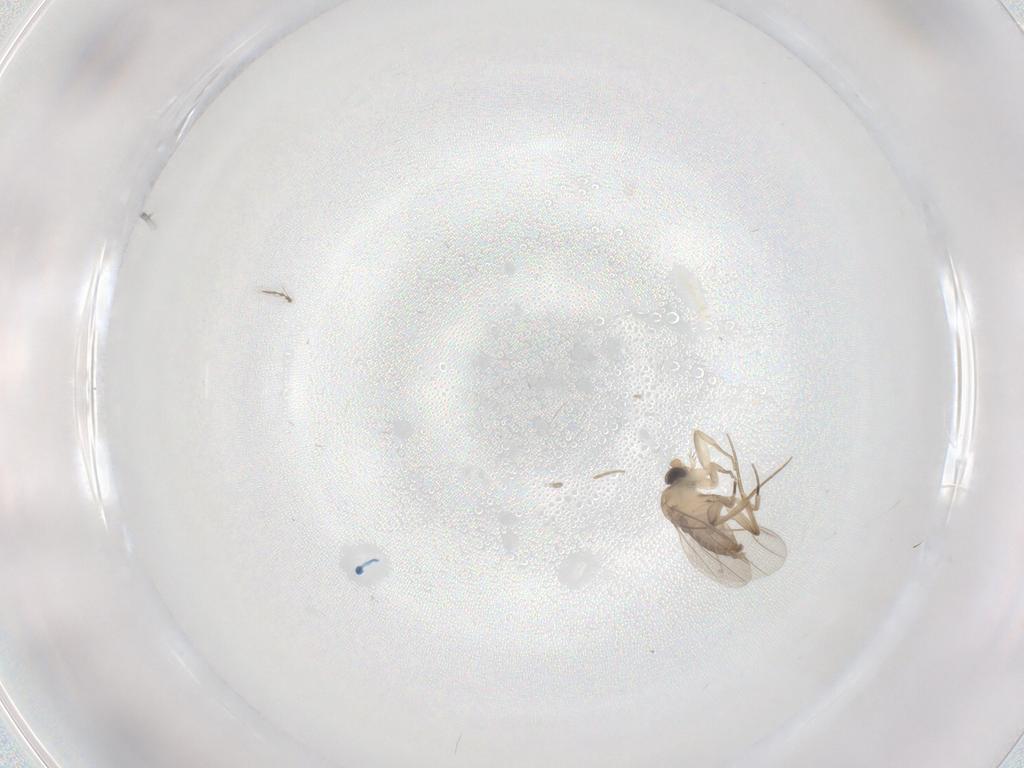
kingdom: Animalia
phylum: Arthropoda
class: Insecta
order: Diptera
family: Phoridae
